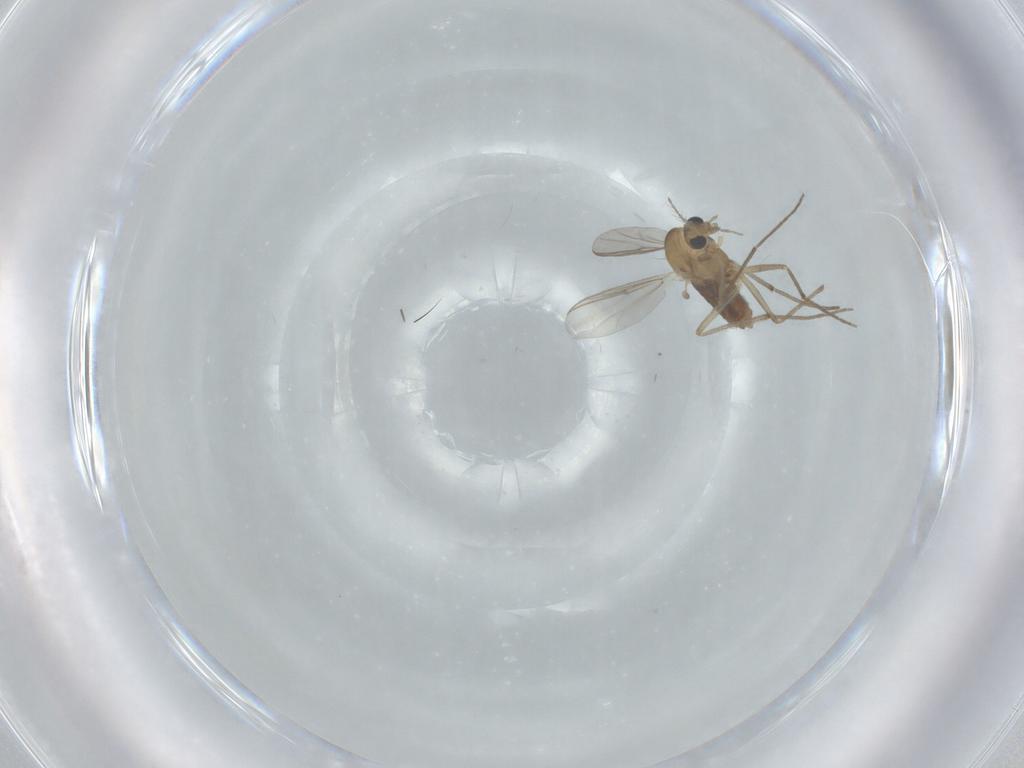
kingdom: Animalia
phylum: Arthropoda
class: Insecta
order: Diptera
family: Chironomidae
